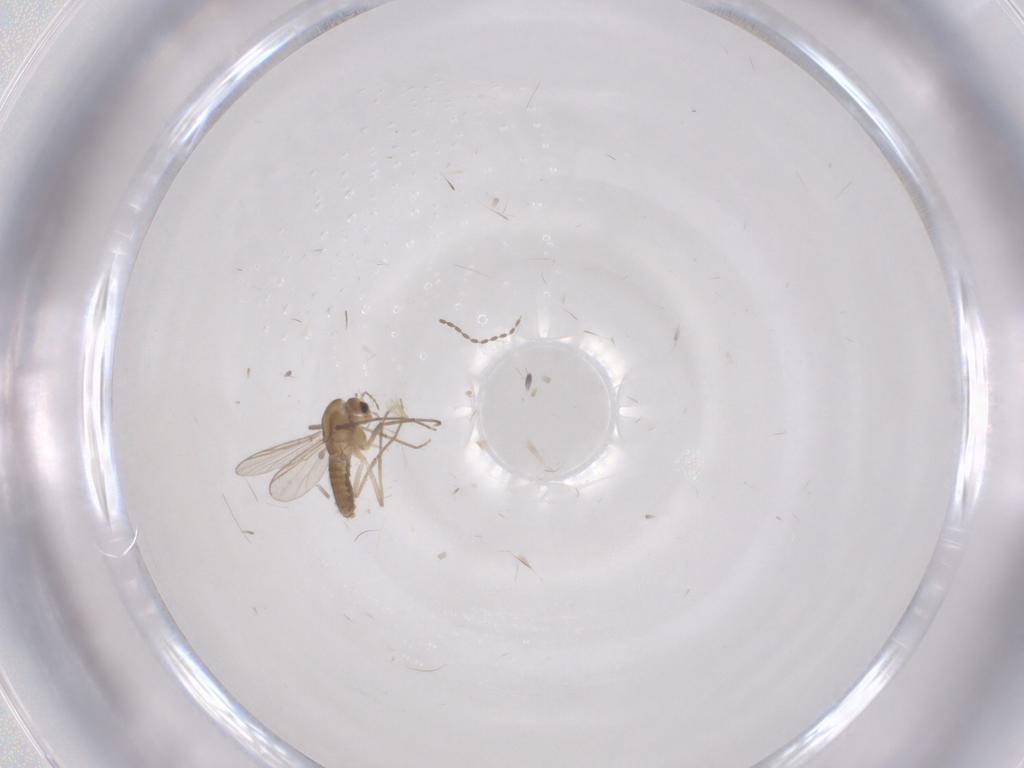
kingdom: Animalia
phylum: Arthropoda
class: Insecta
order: Diptera
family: Chironomidae
